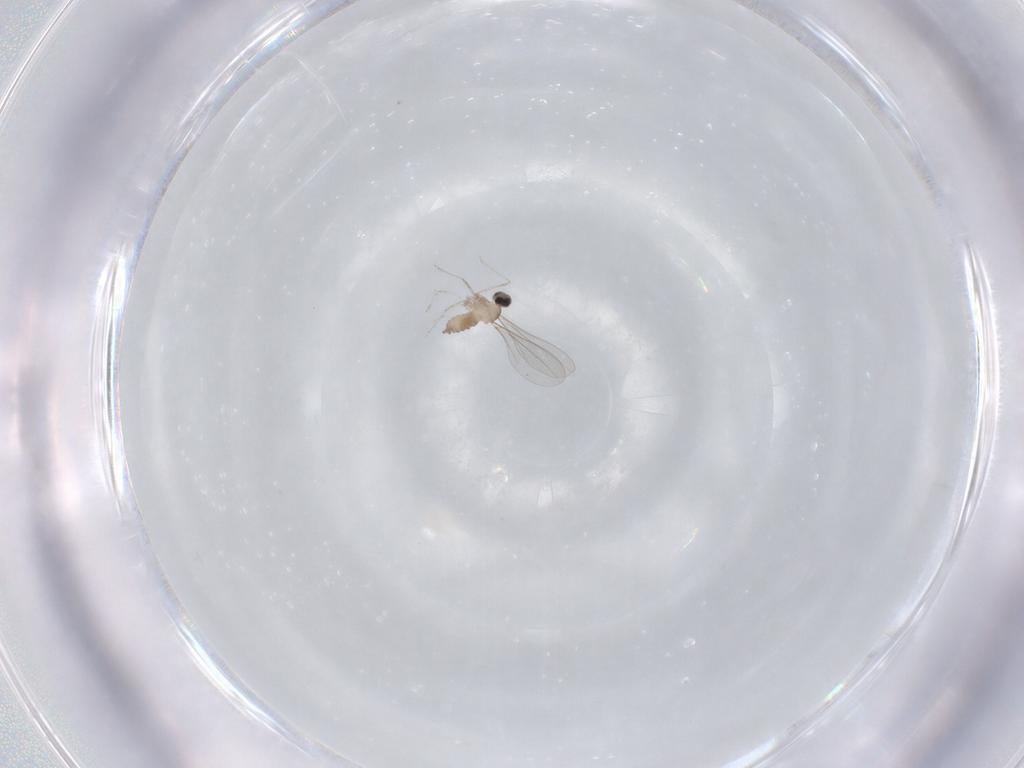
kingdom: Animalia
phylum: Arthropoda
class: Insecta
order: Diptera
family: Cecidomyiidae
